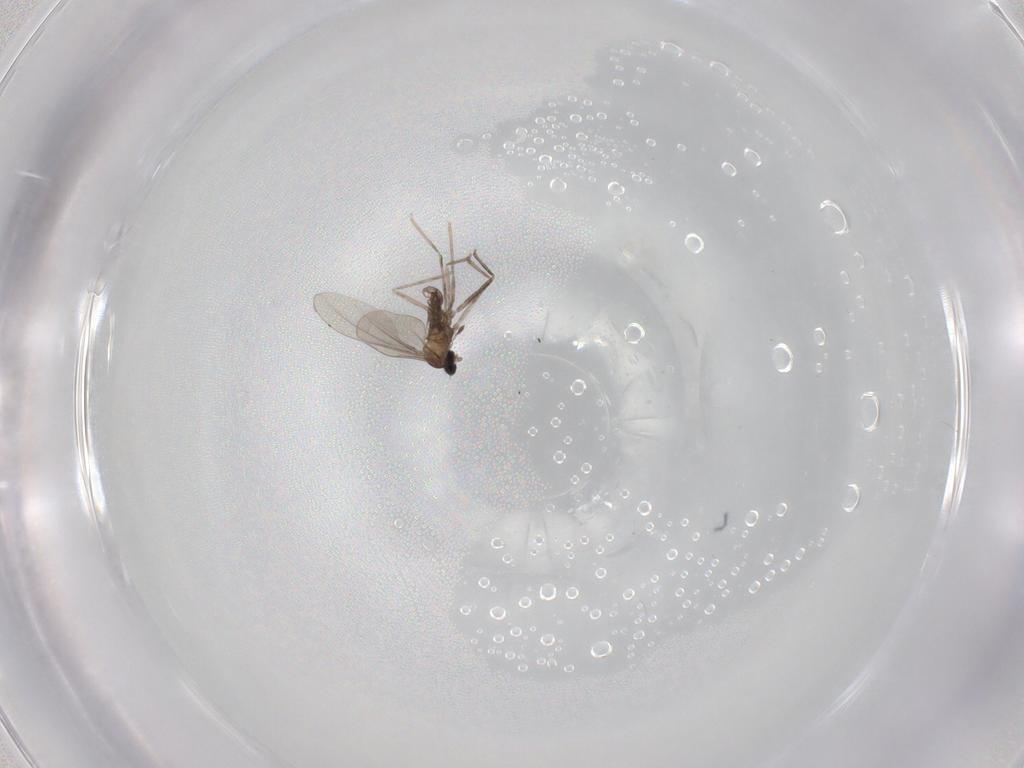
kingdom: Animalia
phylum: Arthropoda
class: Insecta
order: Diptera
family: Cecidomyiidae
